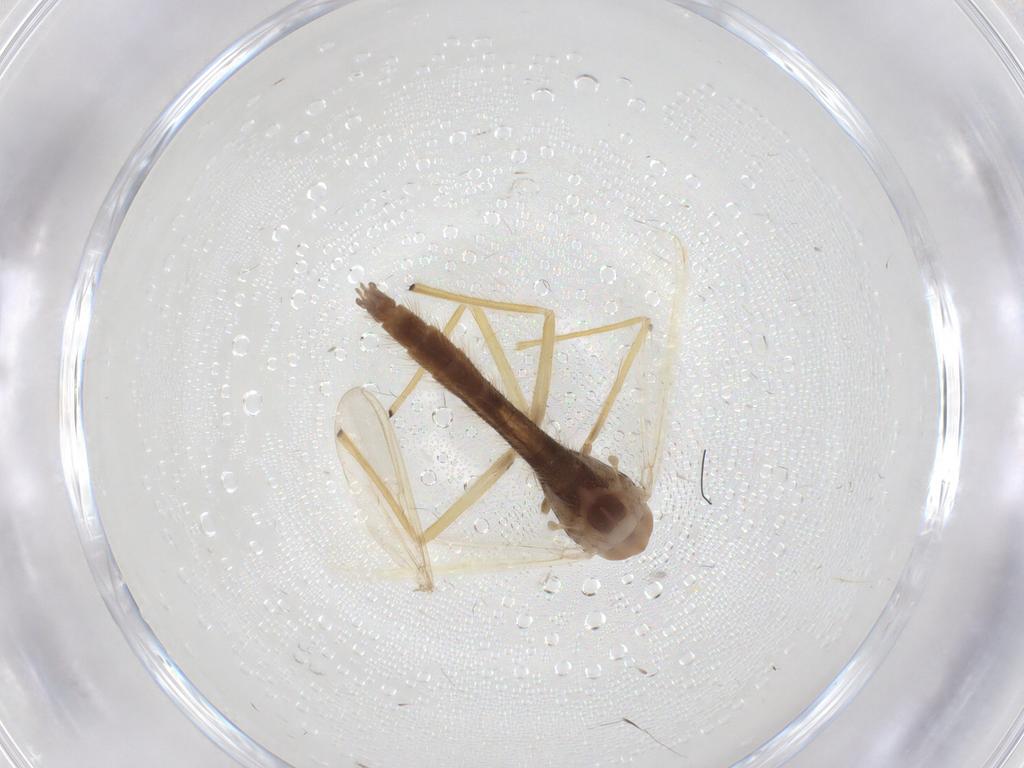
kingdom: Animalia
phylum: Arthropoda
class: Insecta
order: Diptera
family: Chironomidae
